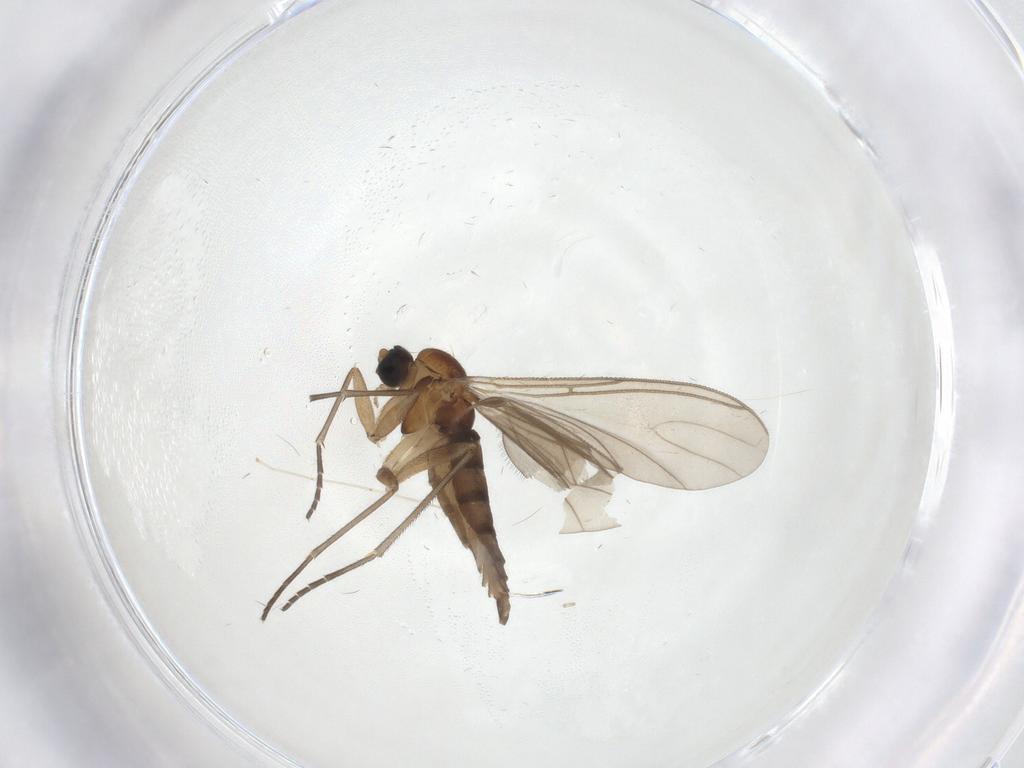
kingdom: Animalia
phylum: Arthropoda
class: Insecta
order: Diptera
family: Sciaridae
